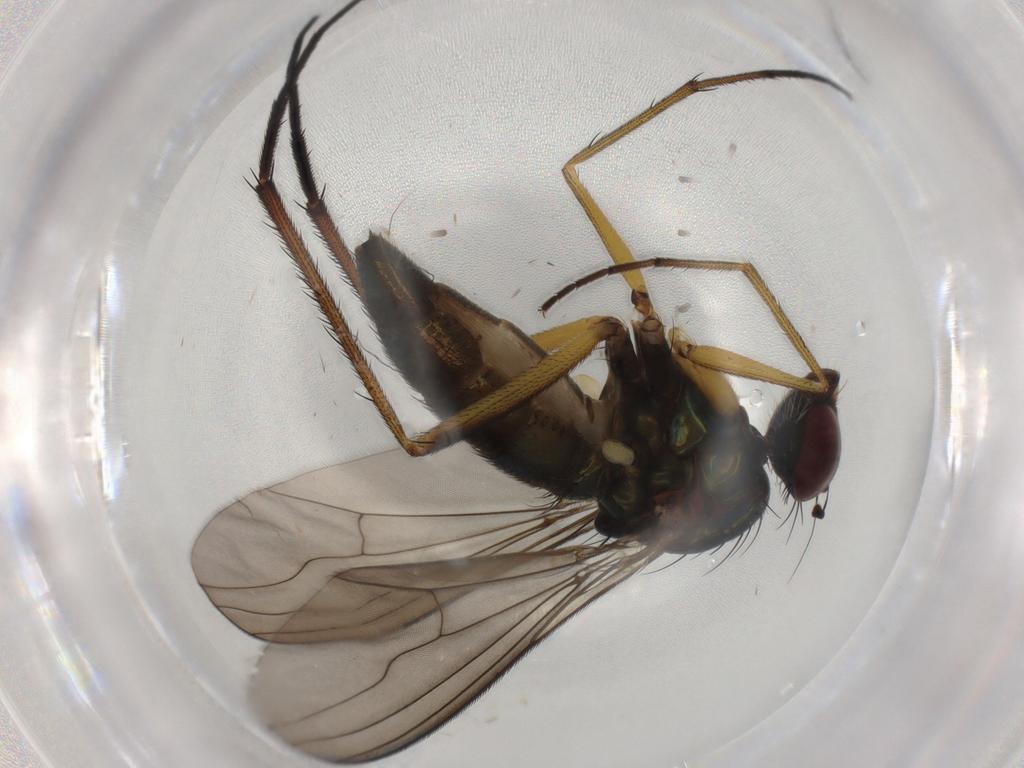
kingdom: Animalia
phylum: Arthropoda
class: Insecta
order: Diptera
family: Dolichopodidae
